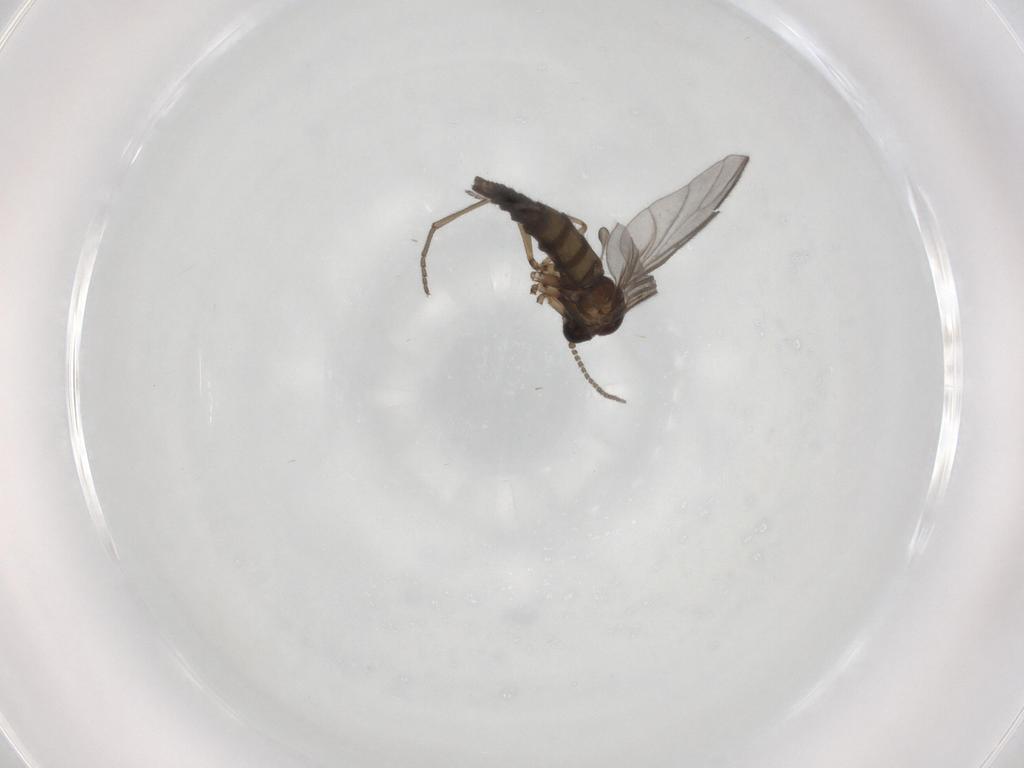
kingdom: Animalia
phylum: Arthropoda
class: Insecta
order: Diptera
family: Sciaridae
